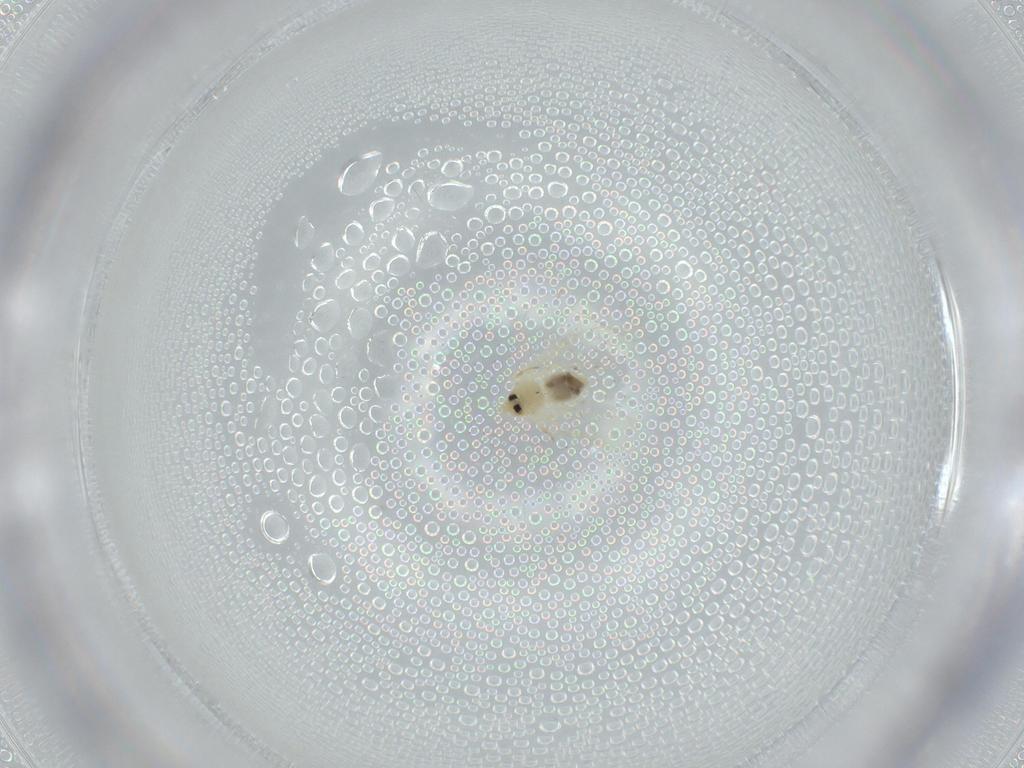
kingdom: Animalia
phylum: Arthropoda
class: Insecta
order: Hemiptera
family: Aleyrodidae
